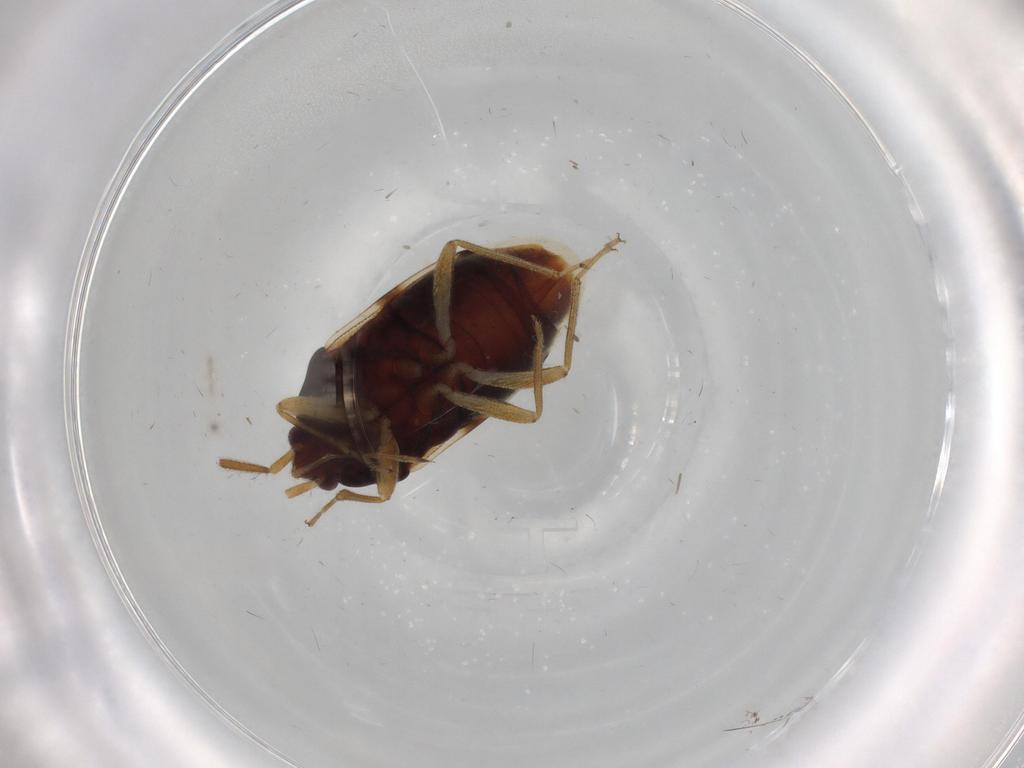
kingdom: Animalia
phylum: Arthropoda
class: Insecta
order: Hemiptera
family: Rhyparochromidae
